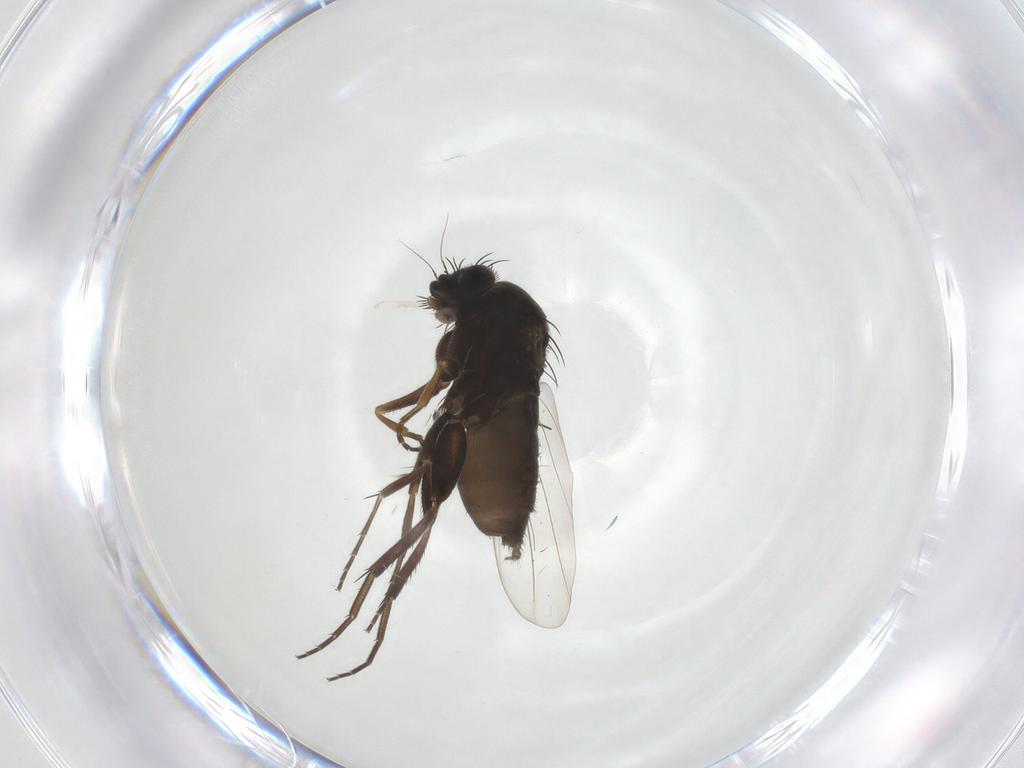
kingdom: Animalia
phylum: Arthropoda
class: Insecta
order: Diptera
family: Phoridae
